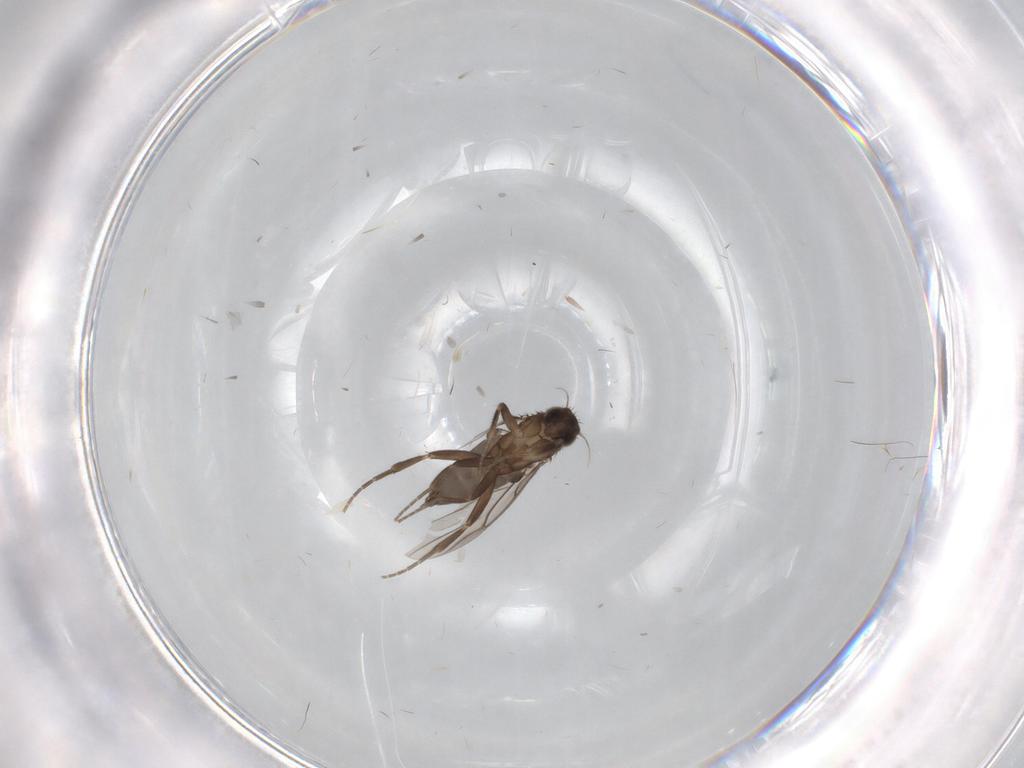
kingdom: Animalia
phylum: Arthropoda
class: Insecta
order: Diptera
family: Phoridae
